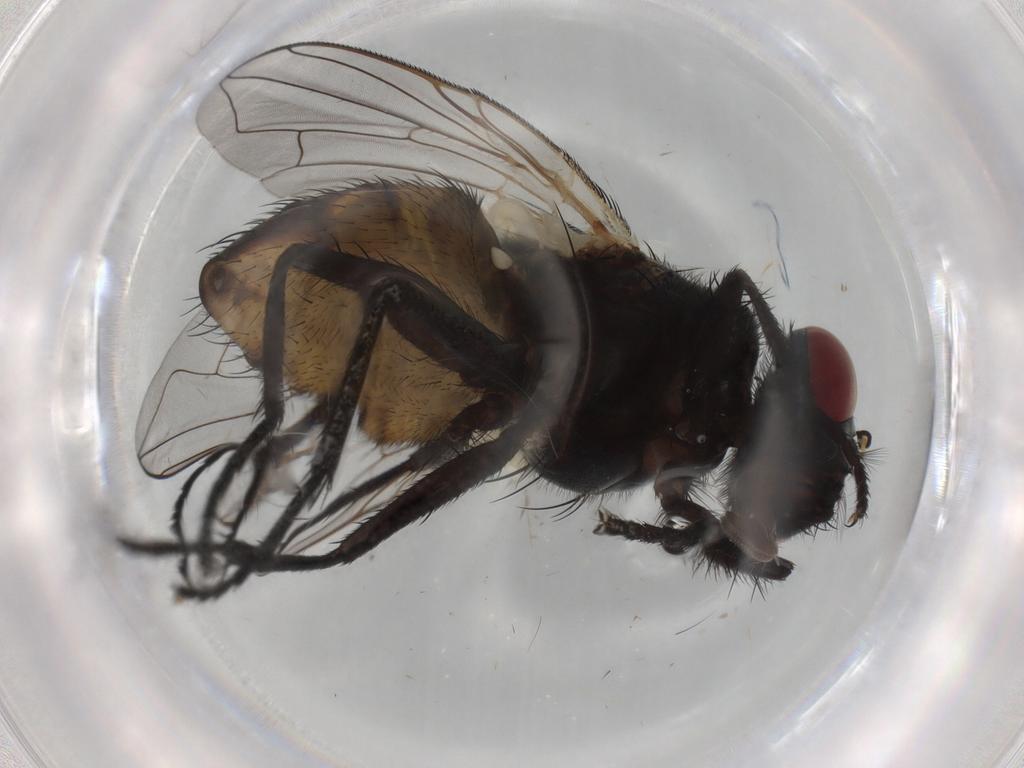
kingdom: Animalia
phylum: Arthropoda
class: Insecta
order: Diptera
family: Muscidae
